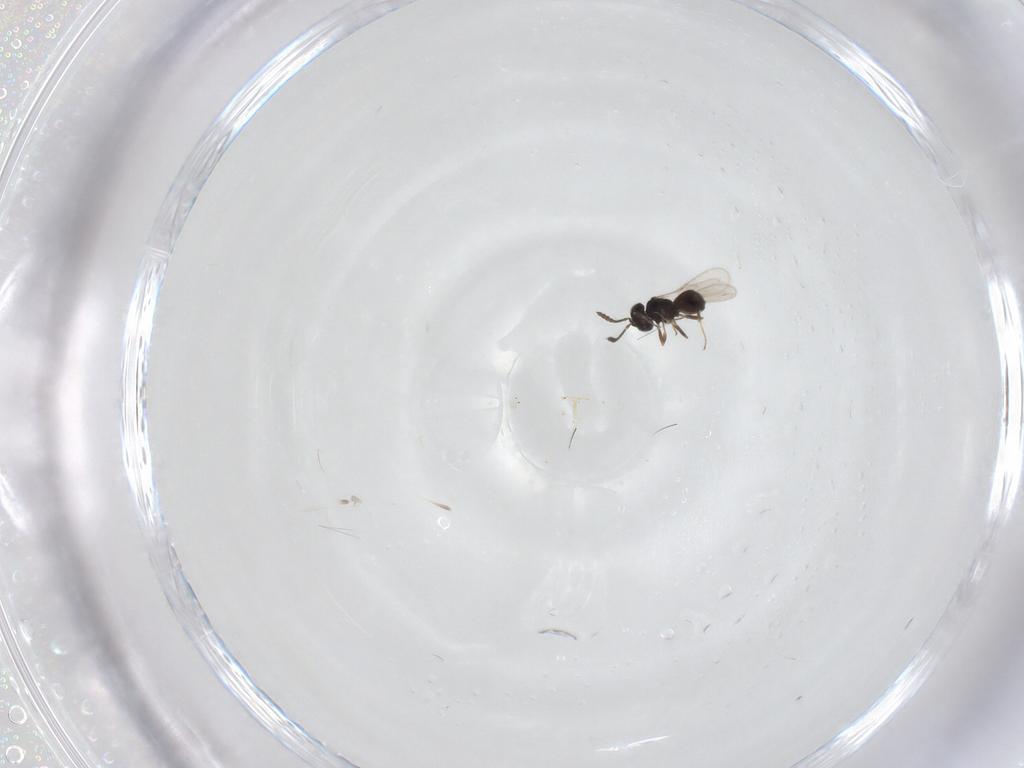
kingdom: Animalia
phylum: Arthropoda
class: Insecta
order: Hymenoptera
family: Scelionidae
